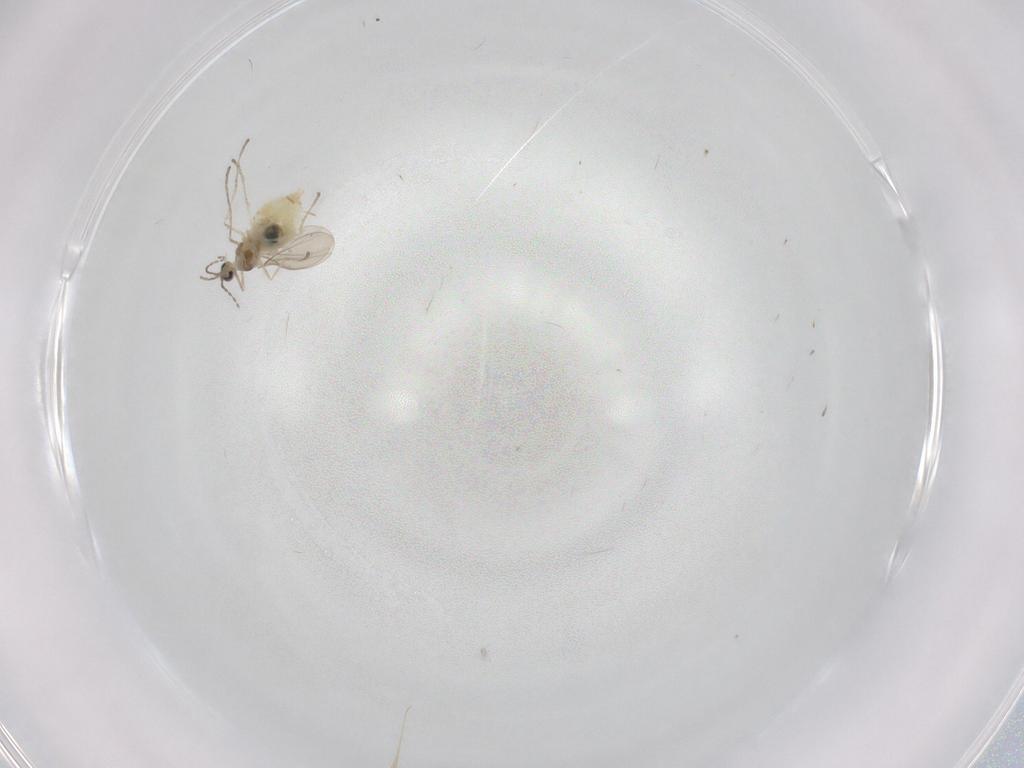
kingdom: Animalia
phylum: Arthropoda
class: Insecta
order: Diptera
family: Cecidomyiidae
